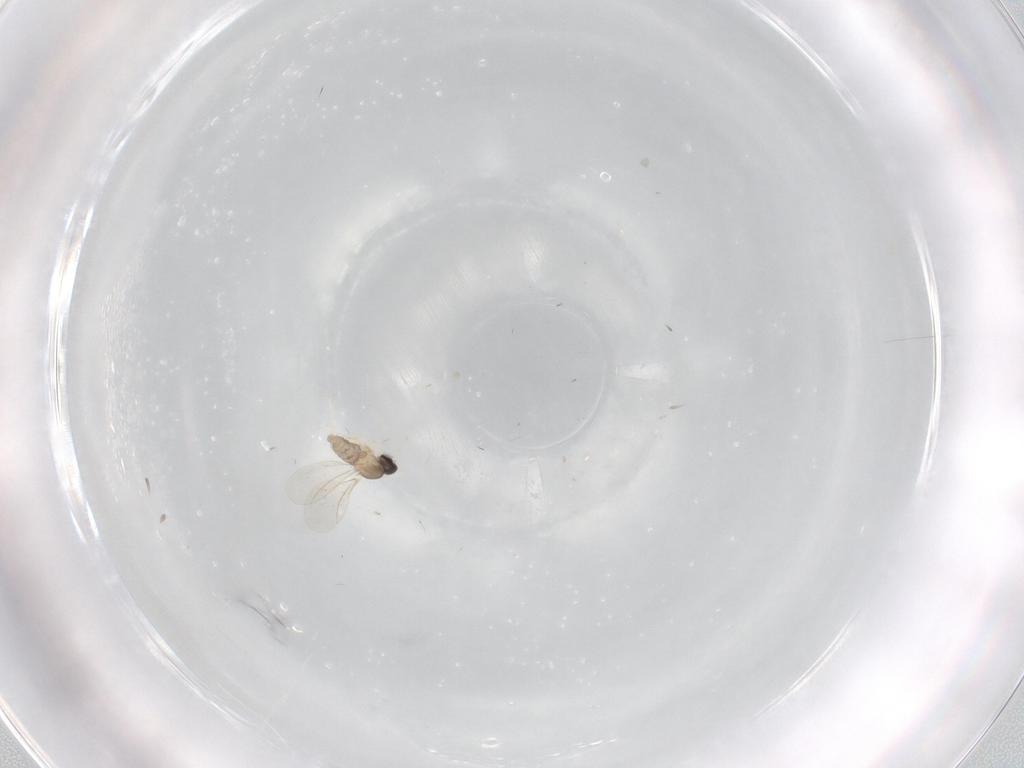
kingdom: Animalia
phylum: Arthropoda
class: Insecta
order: Diptera
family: Cecidomyiidae
